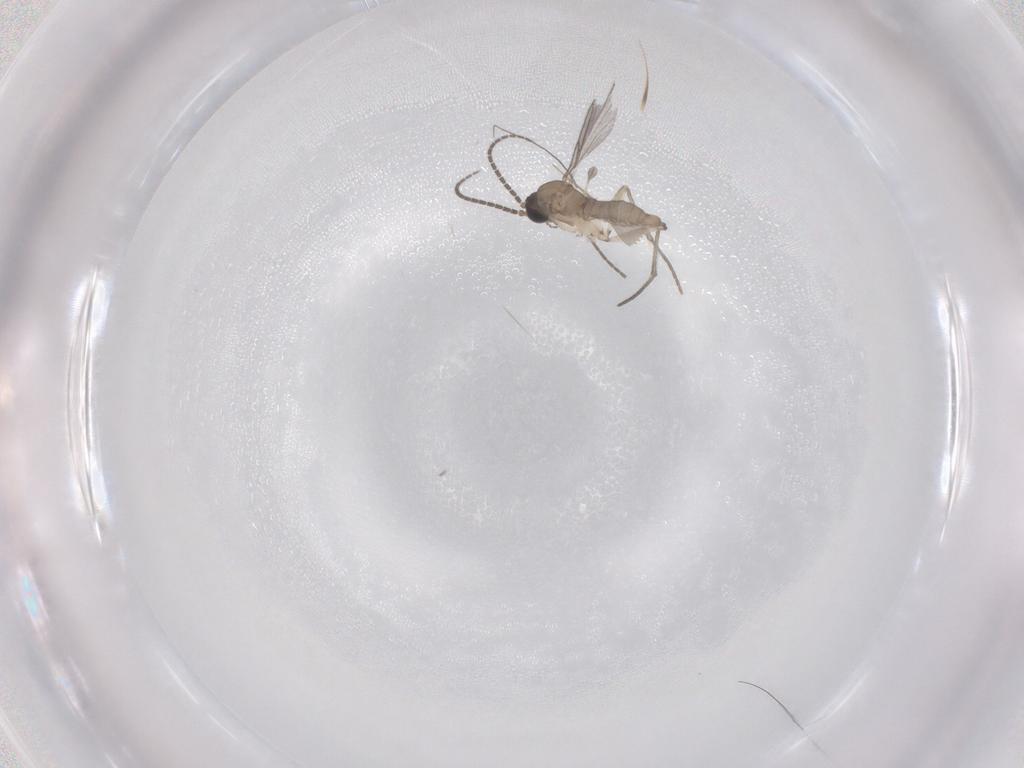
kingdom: Animalia
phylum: Arthropoda
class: Insecta
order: Diptera
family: Sciaridae
